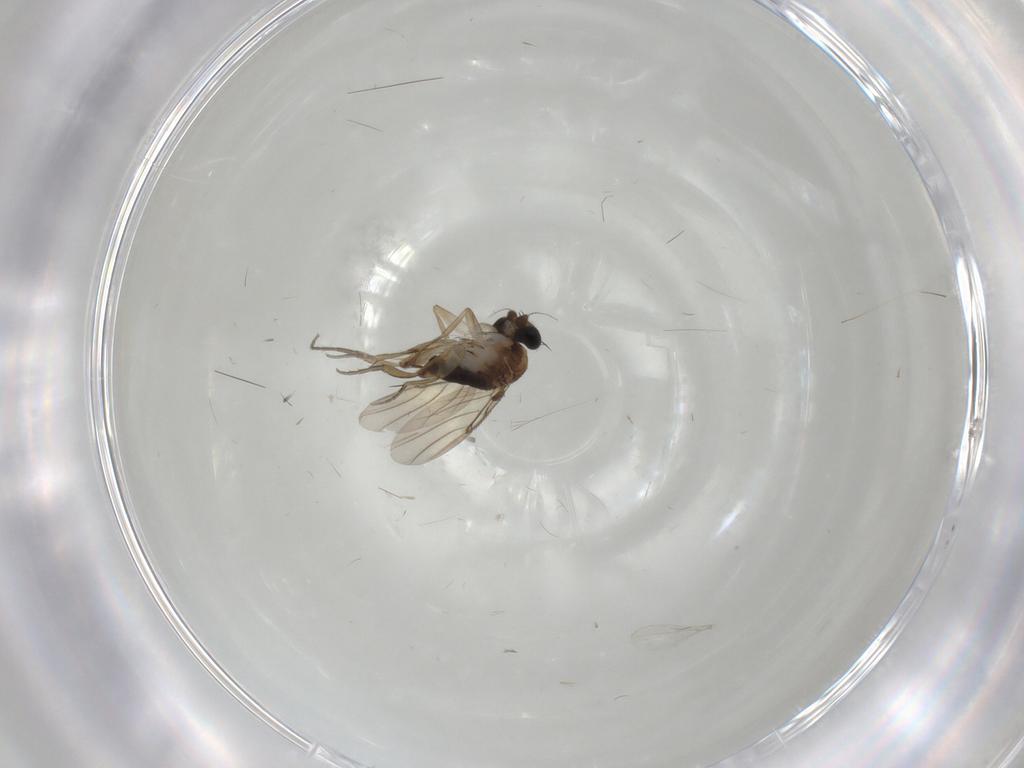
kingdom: Animalia
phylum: Arthropoda
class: Insecta
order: Diptera
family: Phoridae
